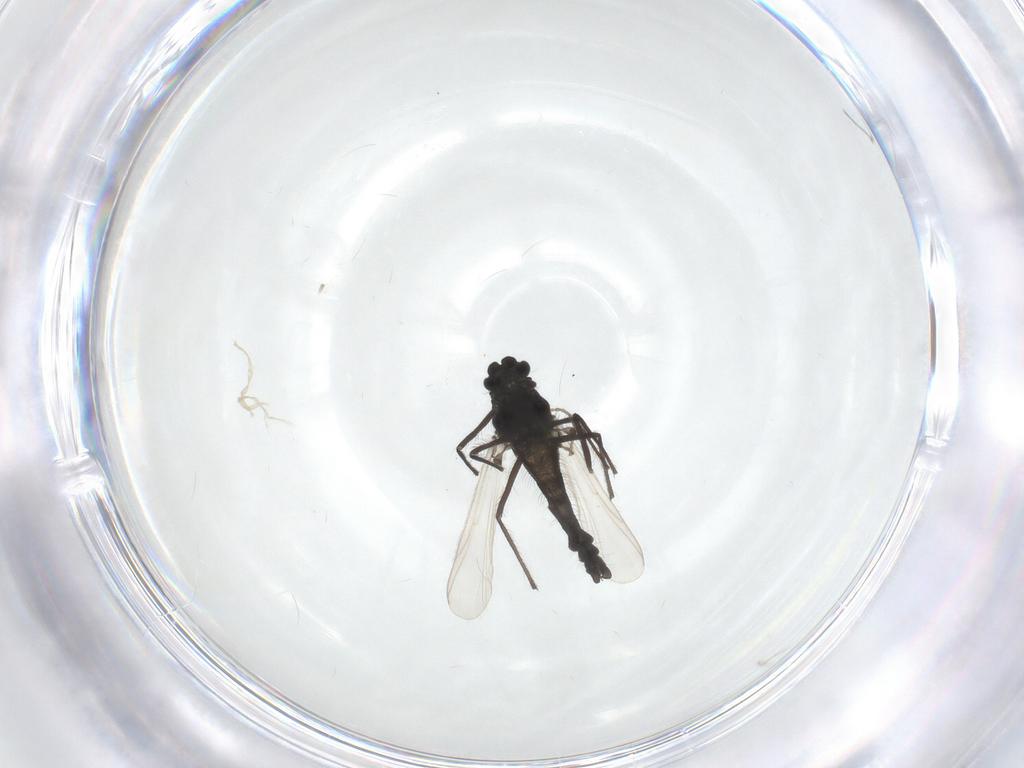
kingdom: Animalia
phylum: Arthropoda
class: Insecta
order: Diptera
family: Chironomidae
